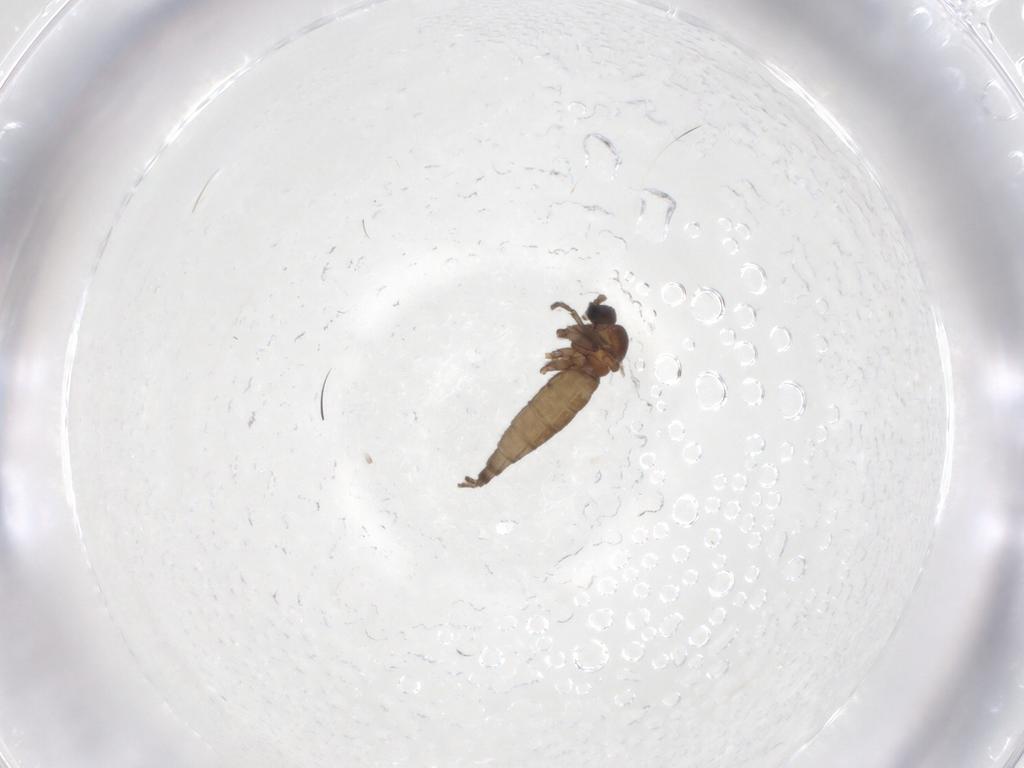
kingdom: Animalia
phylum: Arthropoda
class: Insecta
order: Diptera
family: Sciaridae
